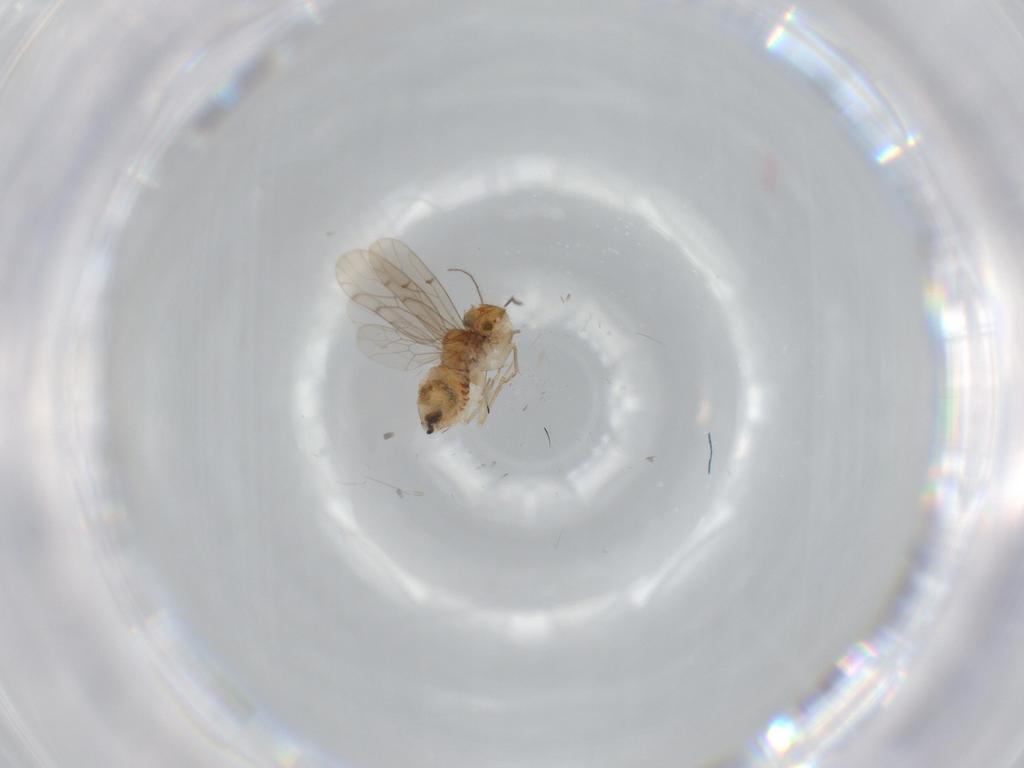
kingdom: Animalia
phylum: Arthropoda
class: Insecta
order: Psocodea
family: Ectopsocidae
